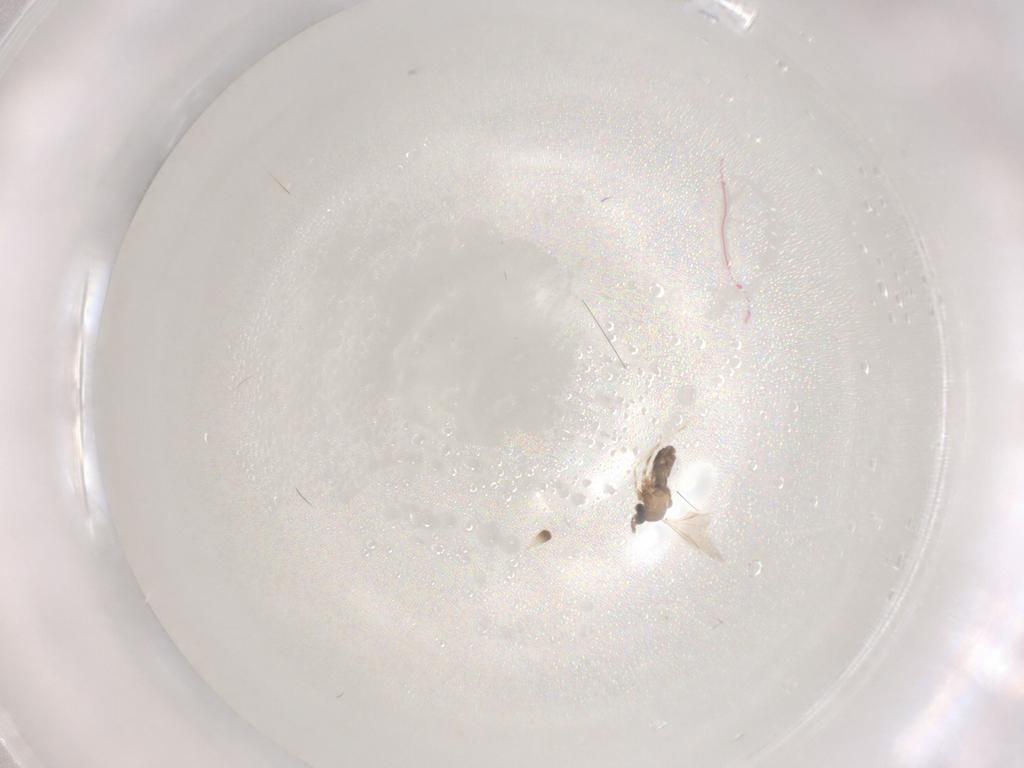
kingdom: Animalia
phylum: Arthropoda
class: Insecta
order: Diptera
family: Cecidomyiidae
